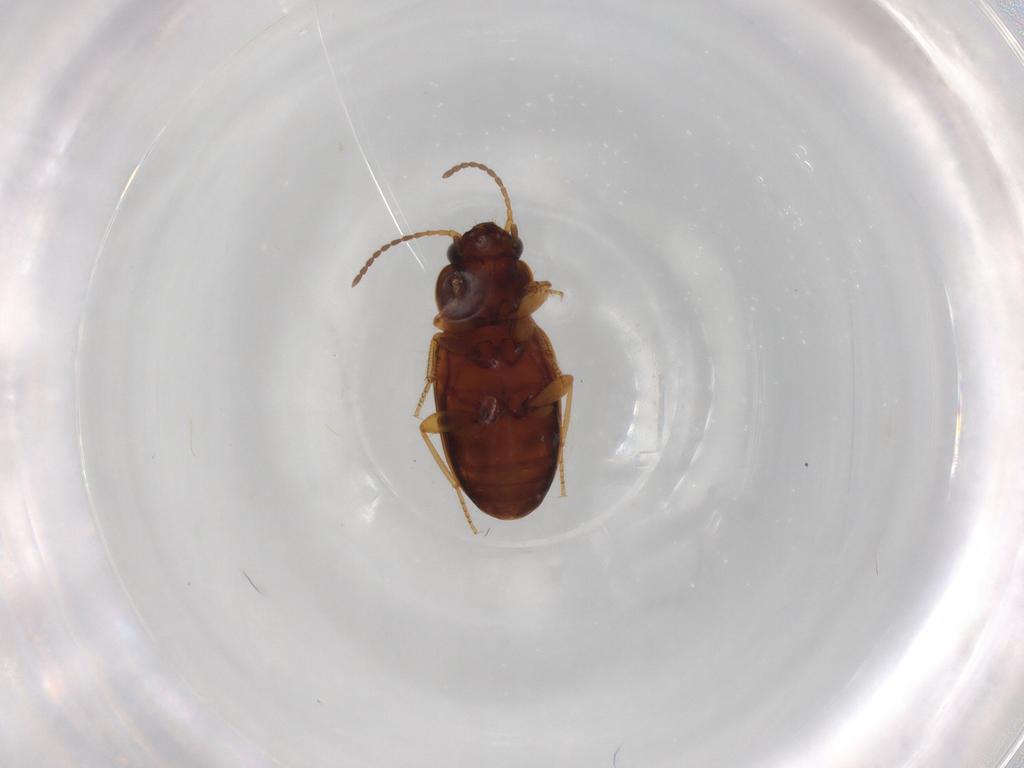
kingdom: Animalia
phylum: Arthropoda
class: Insecta
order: Coleoptera
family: Carabidae
